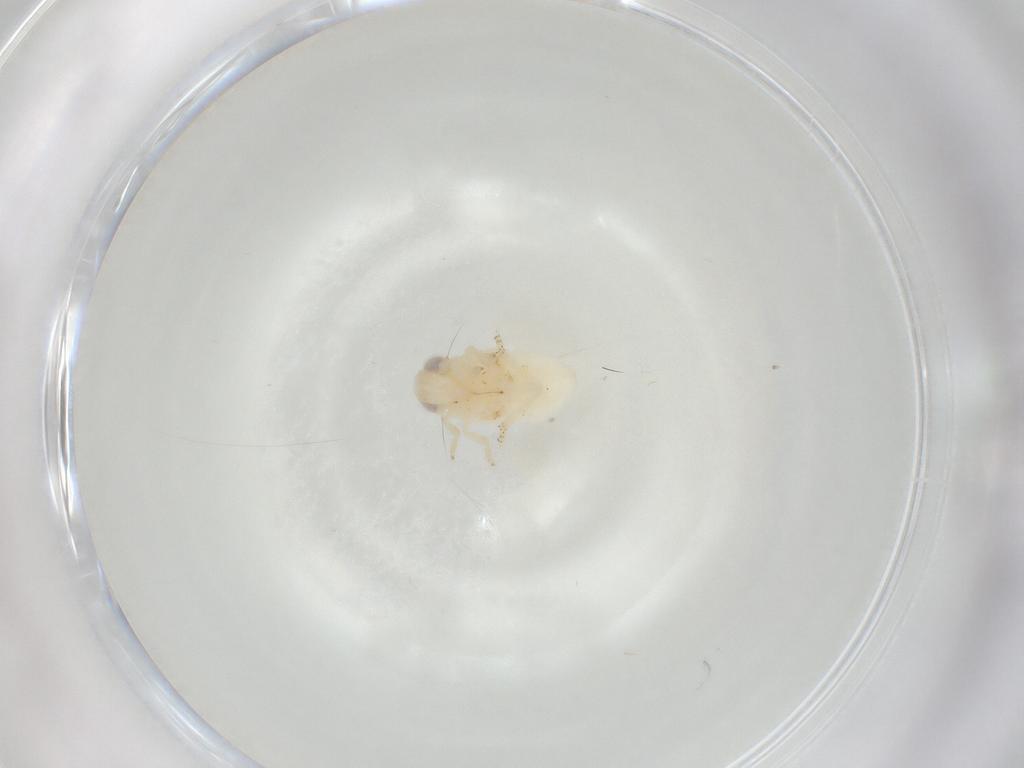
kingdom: Animalia
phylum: Arthropoda
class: Insecta
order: Hemiptera
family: Nogodinidae
